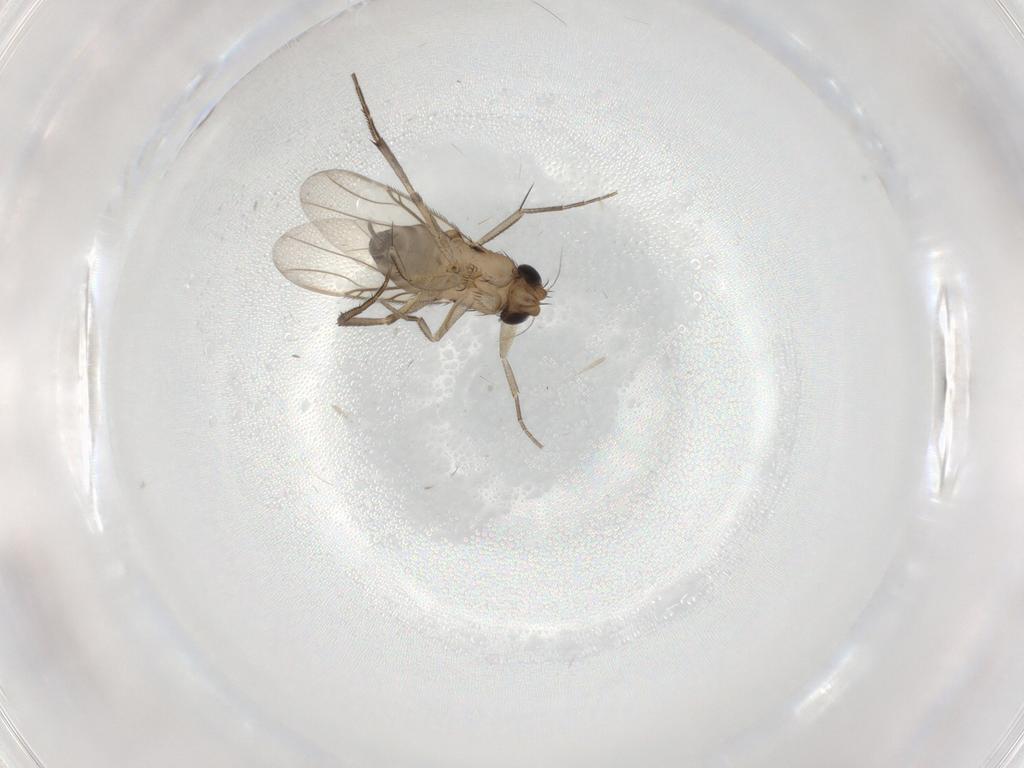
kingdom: Animalia
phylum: Arthropoda
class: Insecta
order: Diptera
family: Phoridae
